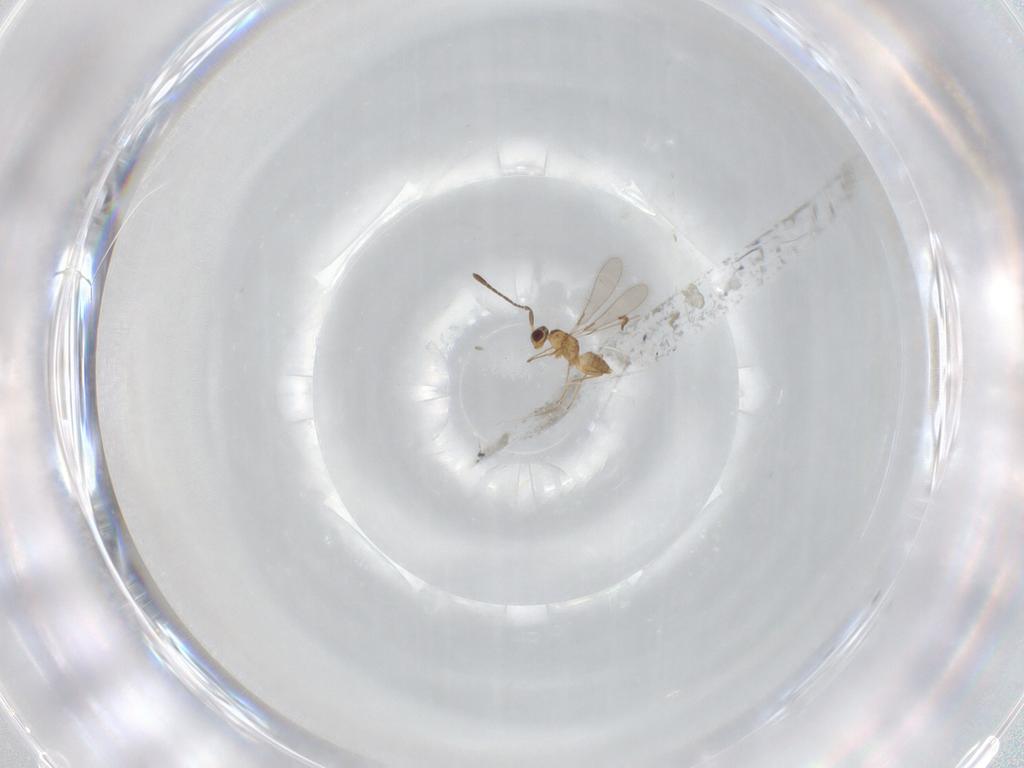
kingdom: Animalia
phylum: Arthropoda
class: Insecta
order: Hymenoptera
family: Mymaridae
